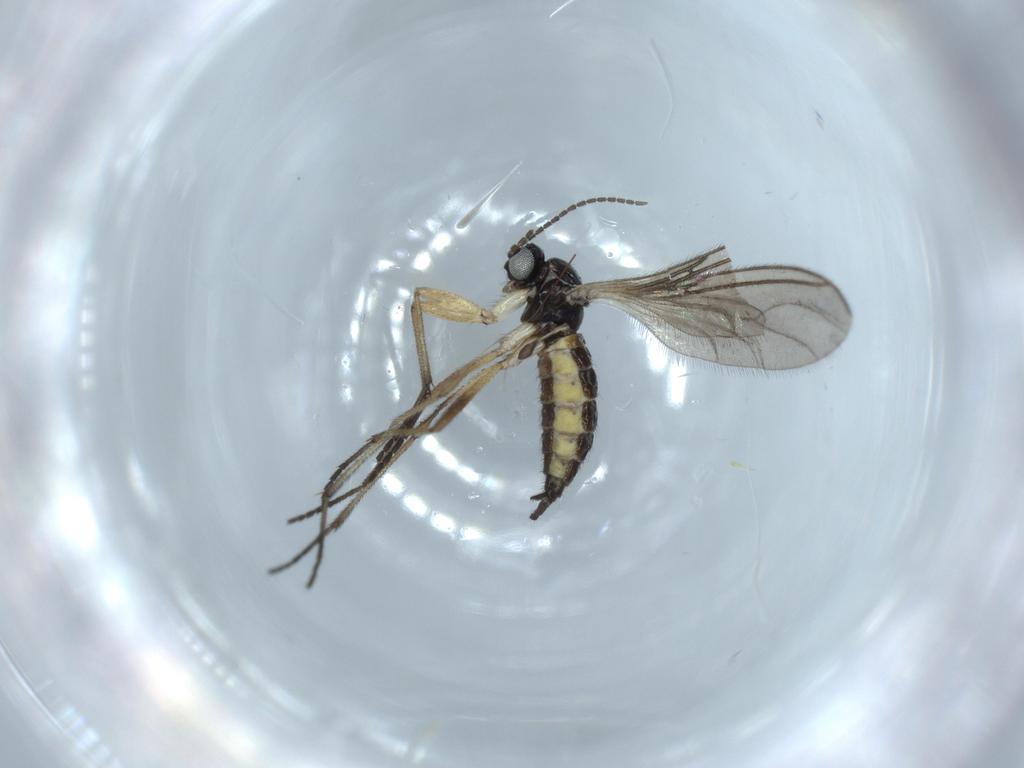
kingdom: Animalia
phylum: Arthropoda
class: Insecta
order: Diptera
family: Sciaridae
